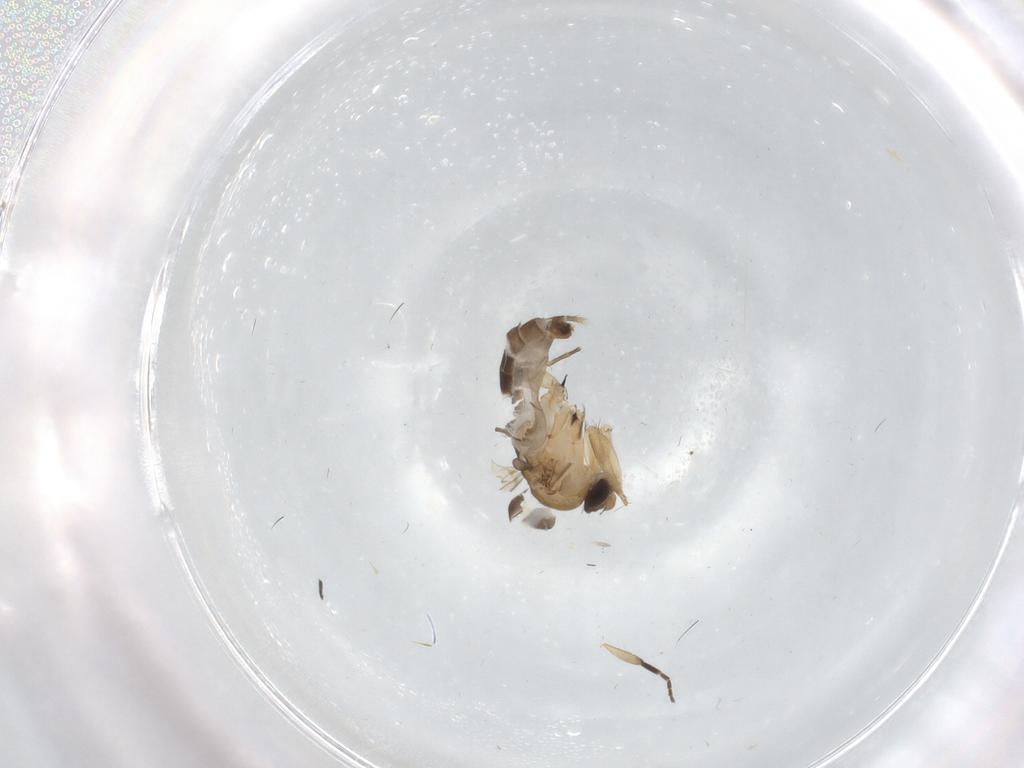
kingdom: Animalia
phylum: Arthropoda
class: Insecta
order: Diptera
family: Phoridae
